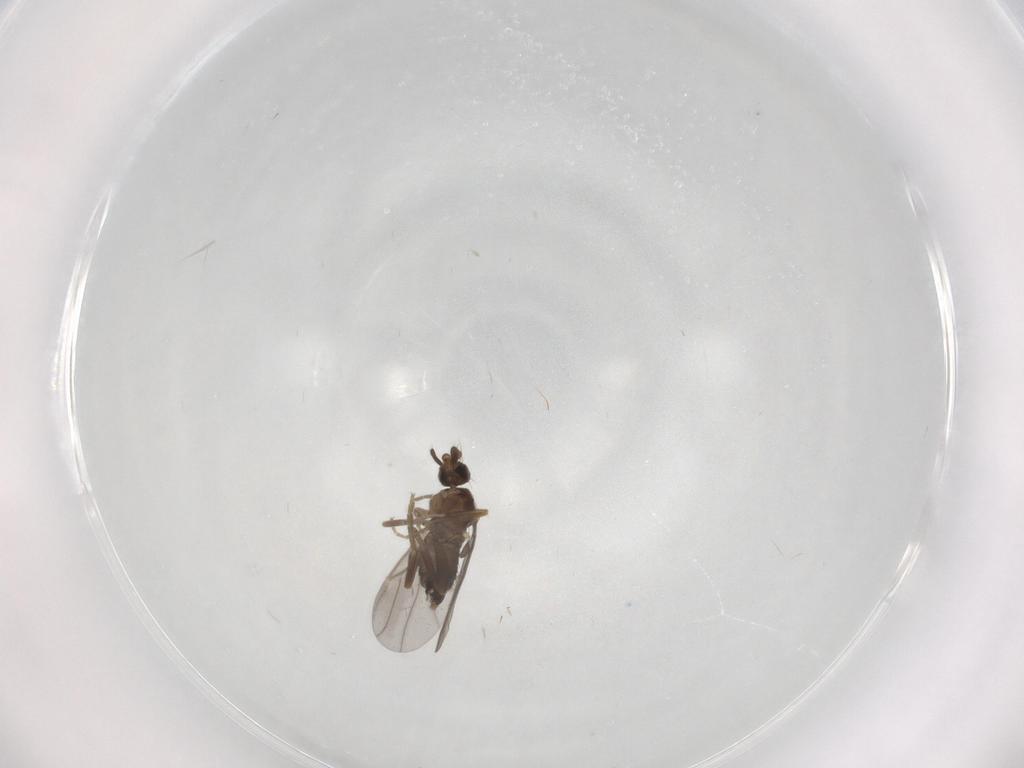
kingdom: Animalia
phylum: Arthropoda
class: Insecta
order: Diptera
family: Phoridae
